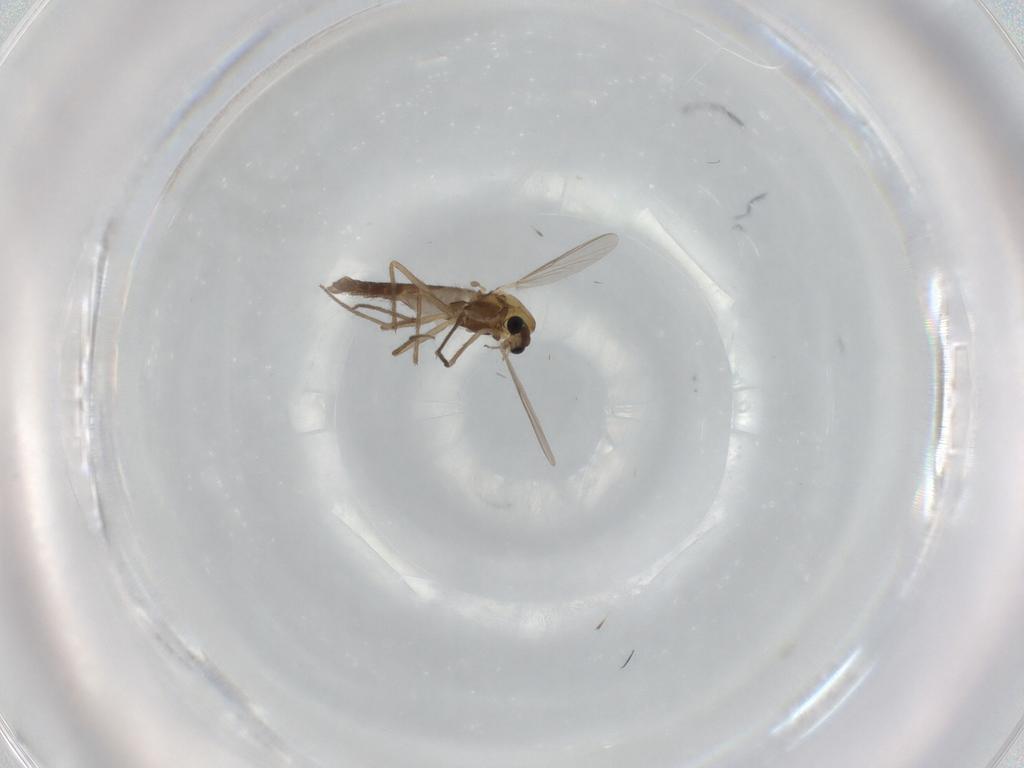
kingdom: Animalia
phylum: Arthropoda
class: Insecta
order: Diptera
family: Chironomidae
